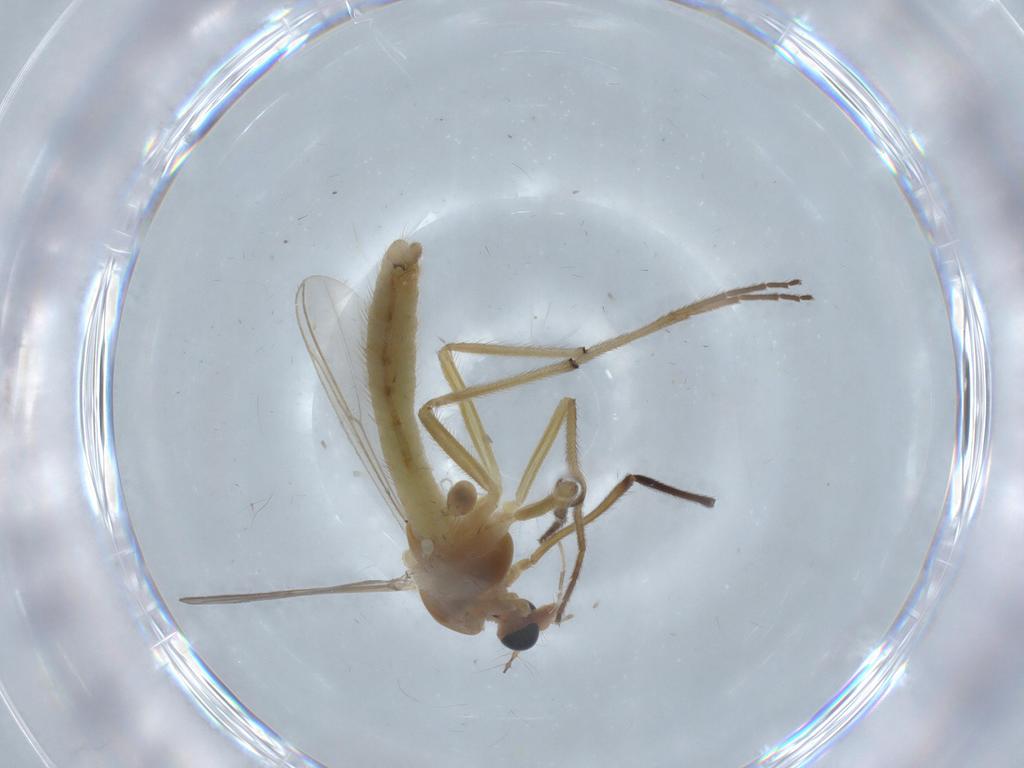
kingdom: Animalia
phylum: Arthropoda
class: Insecta
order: Diptera
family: Chironomidae
